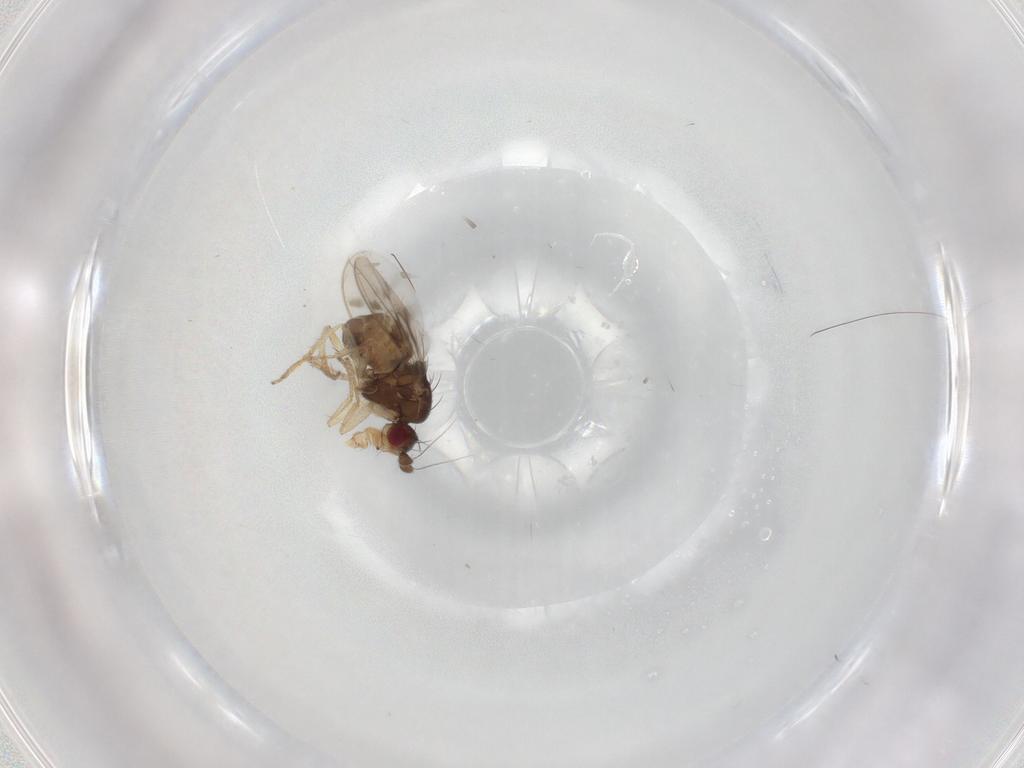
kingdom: Animalia
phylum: Arthropoda
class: Insecta
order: Diptera
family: Sphaeroceridae
